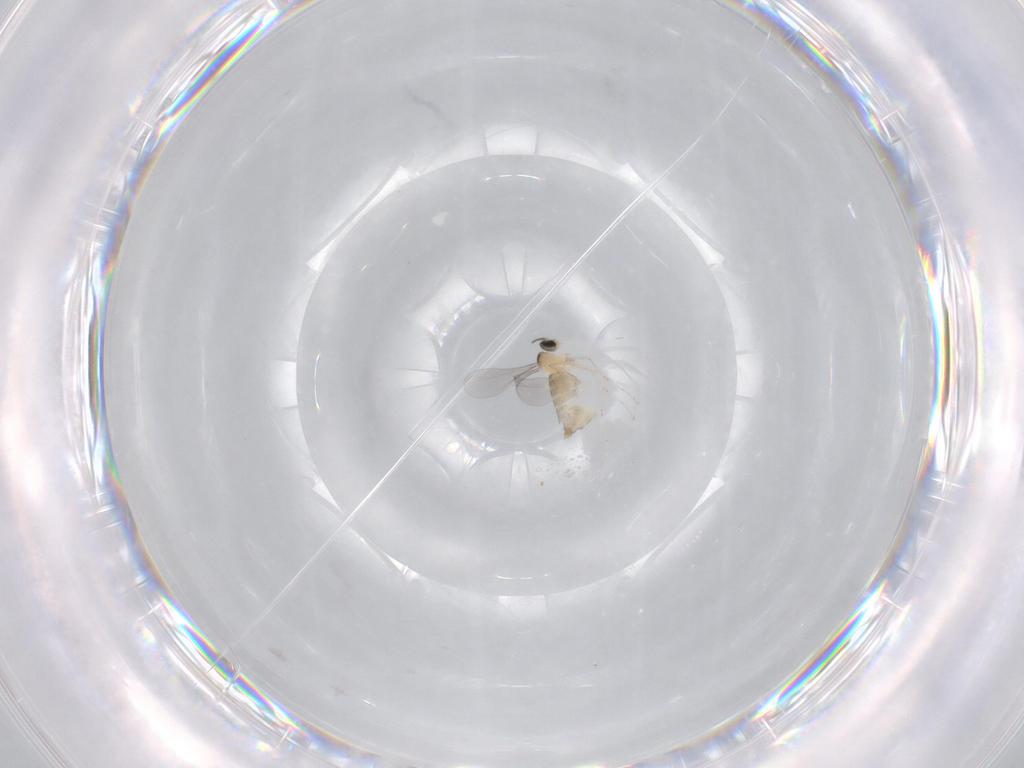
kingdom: Animalia
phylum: Arthropoda
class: Insecta
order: Diptera
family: Cecidomyiidae
